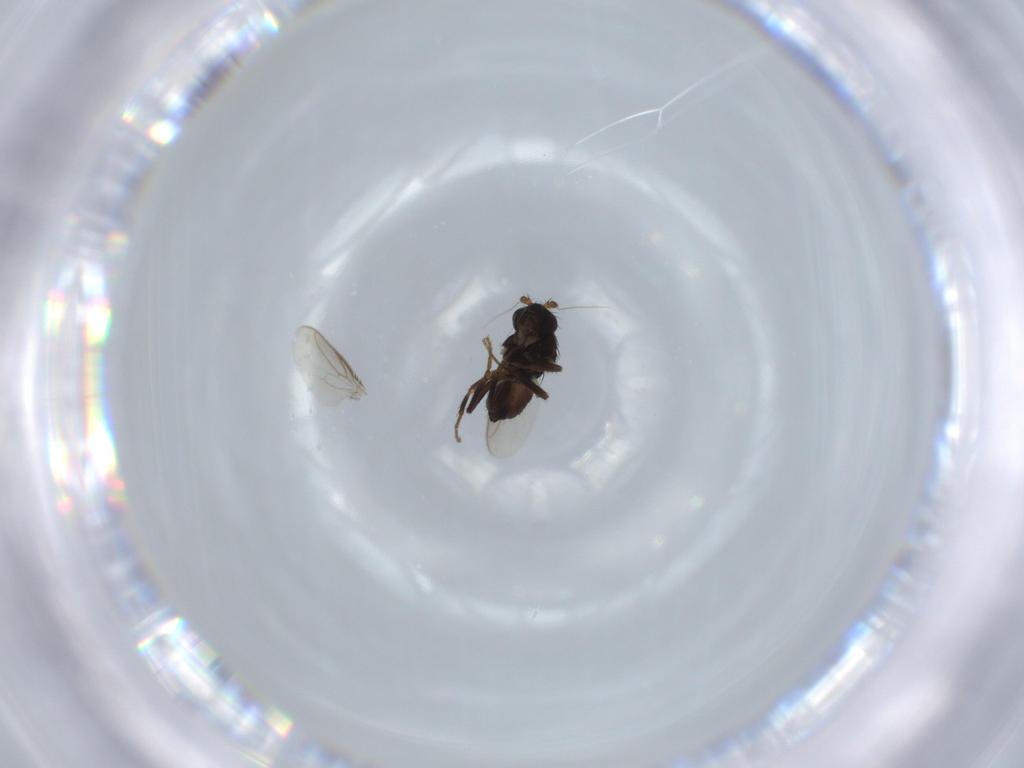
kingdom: Animalia
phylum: Arthropoda
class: Insecta
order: Diptera
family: Sphaeroceridae
